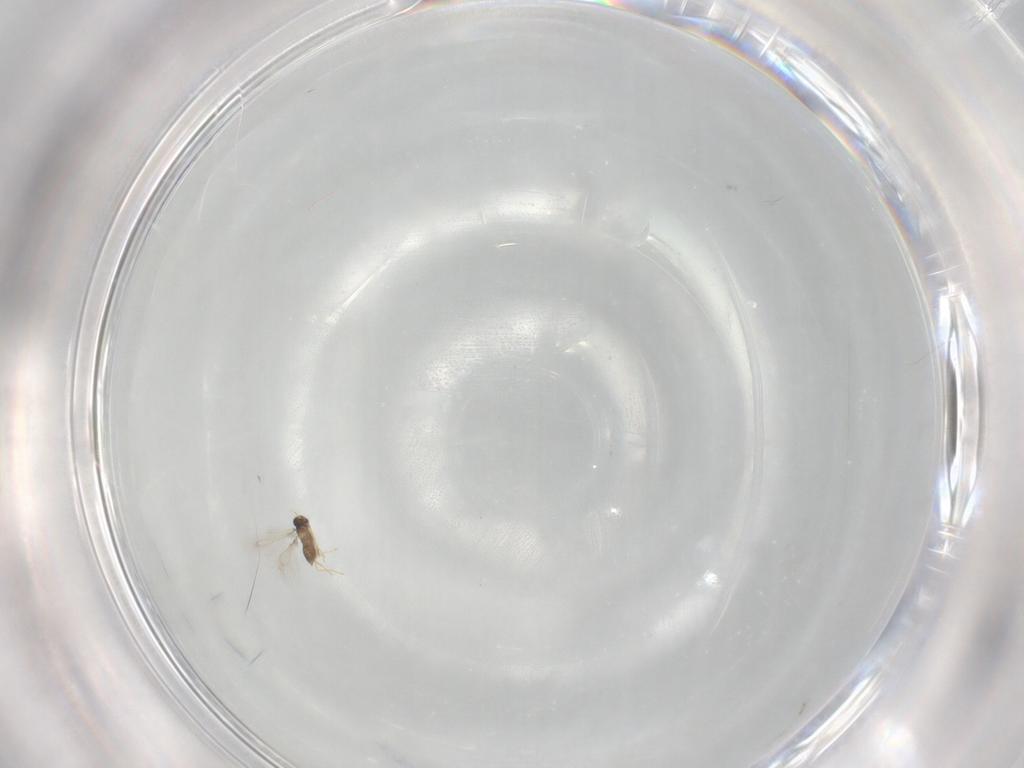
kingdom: Animalia
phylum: Arthropoda
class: Insecta
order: Hymenoptera
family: Mymaridae
